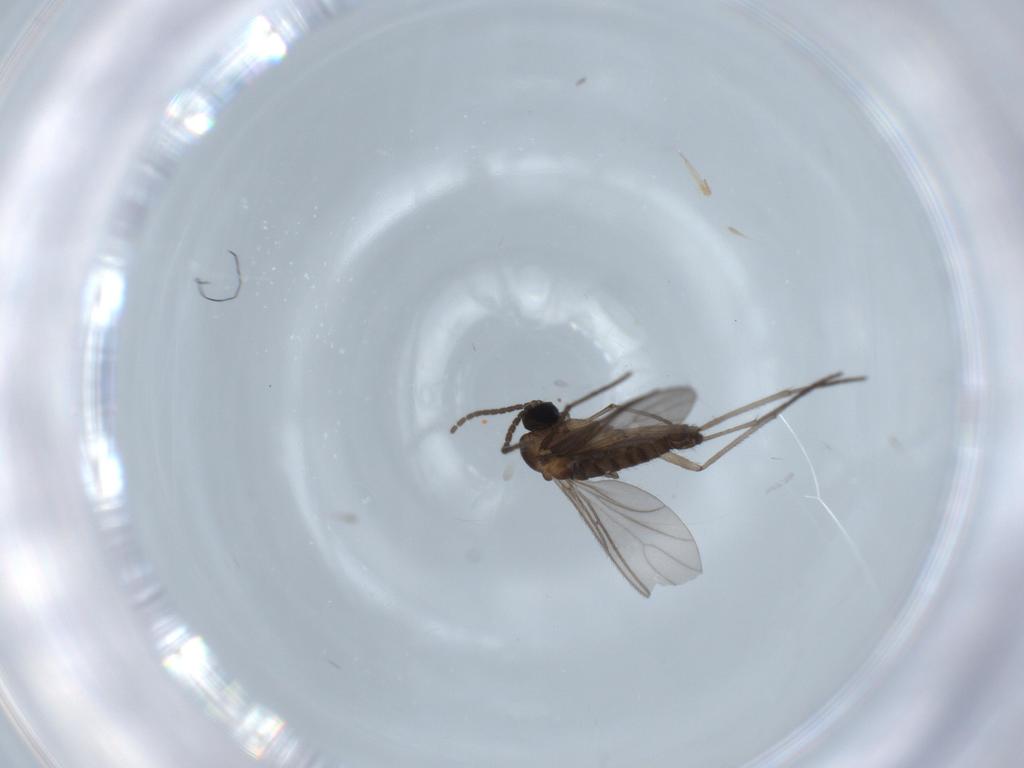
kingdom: Animalia
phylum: Arthropoda
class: Insecta
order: Diptera
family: Sciaridae
